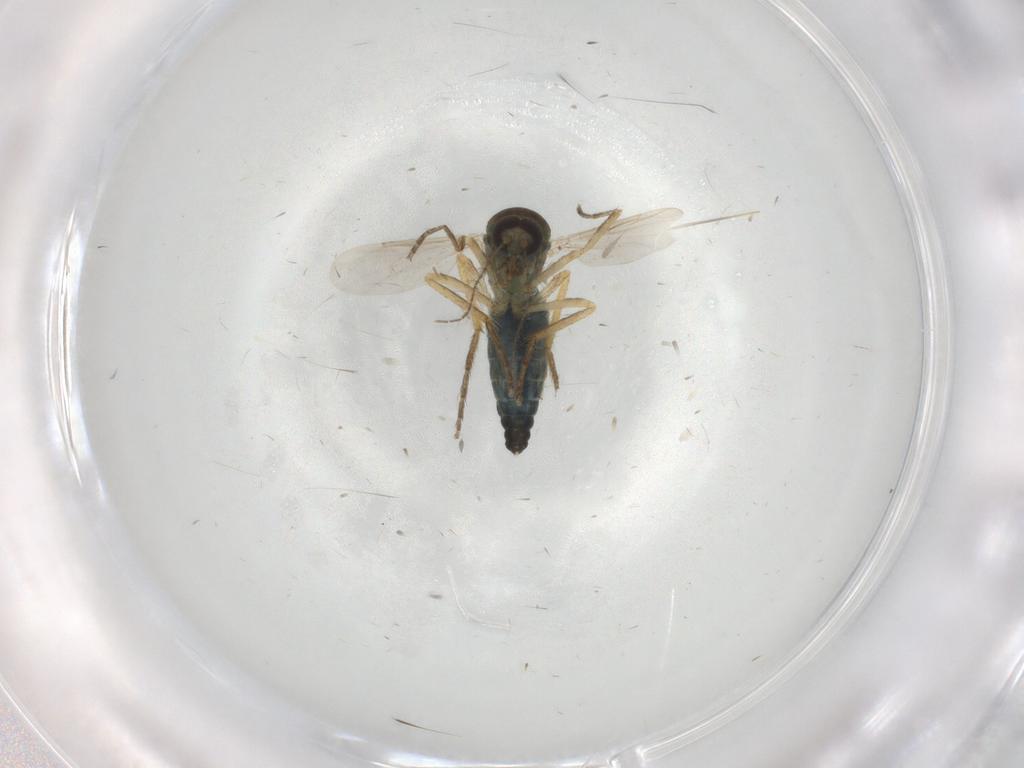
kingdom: Animalia
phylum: Arthropoda
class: Insecta
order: Diptera
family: Ceratopogonidae
